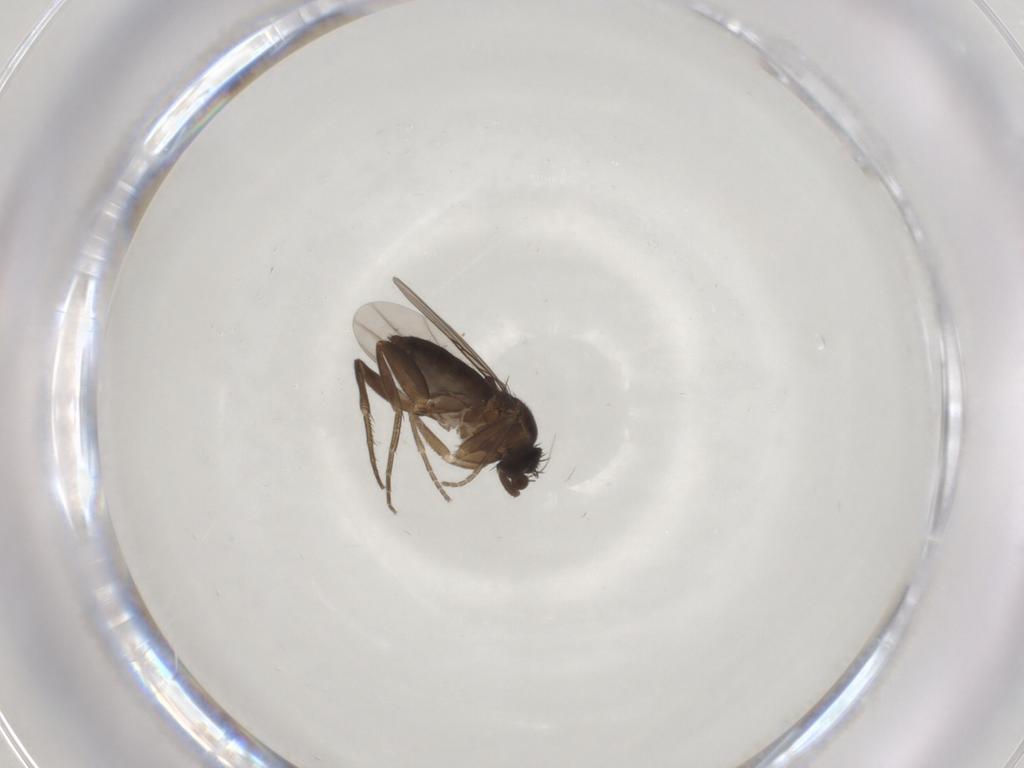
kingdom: Animalia
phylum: Arthropoda
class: Insecta
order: Diptera
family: Phoridae
